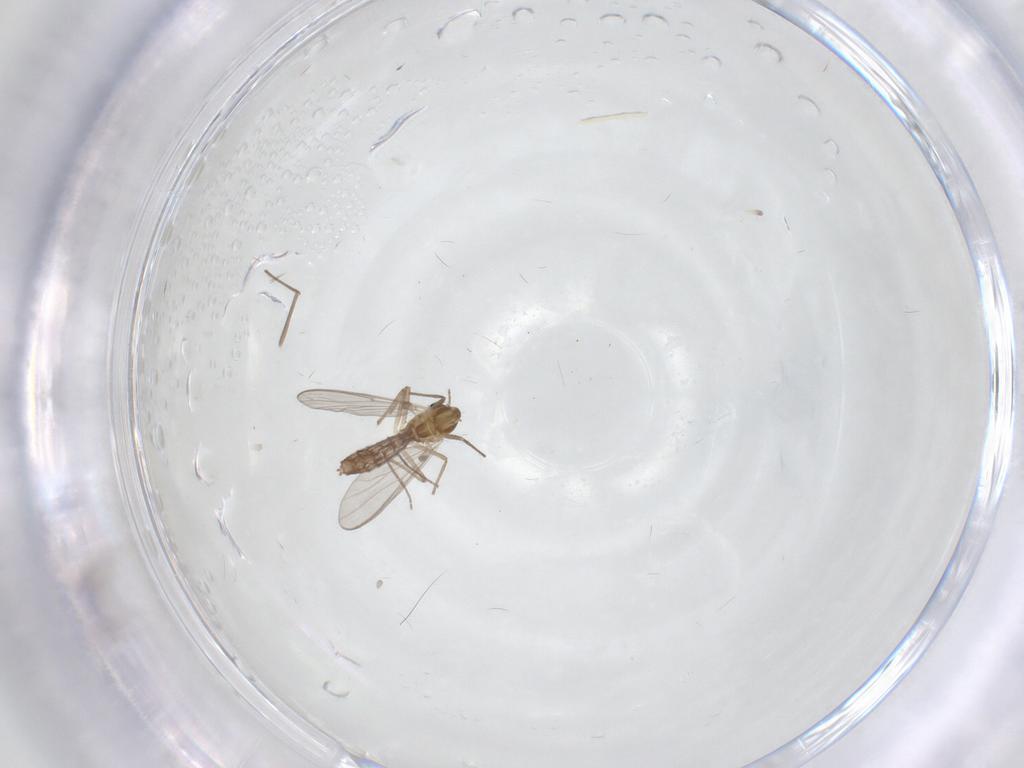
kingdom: Animalia
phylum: Arthropoda
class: Insecta
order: Diptera
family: Chironomidae
